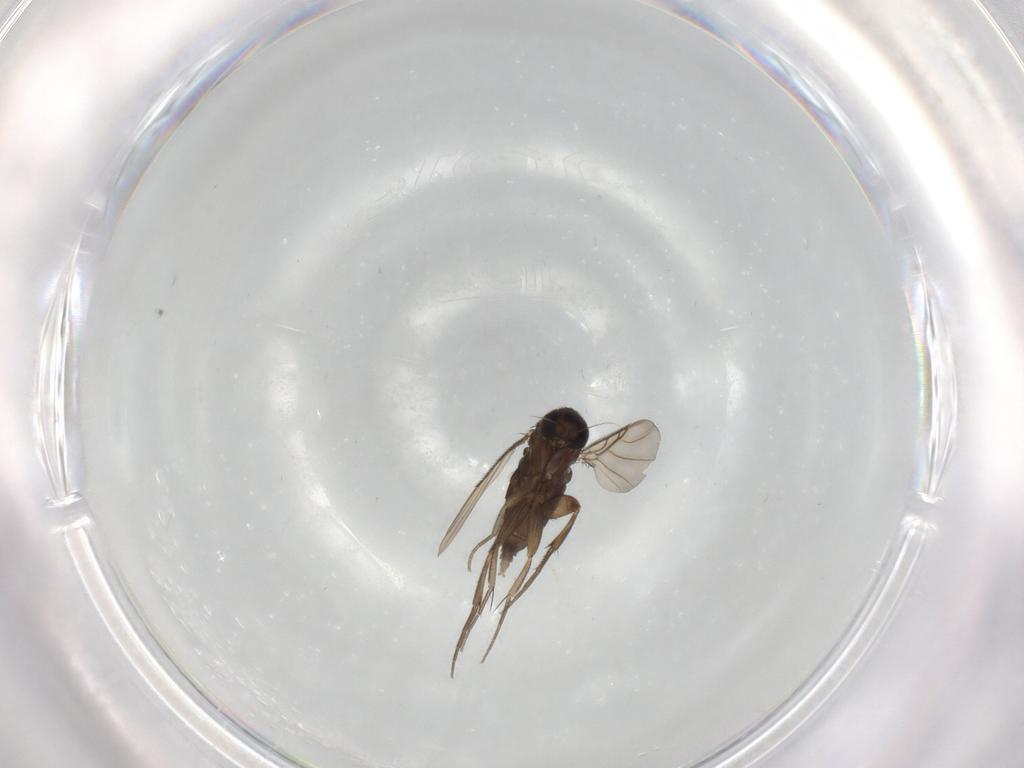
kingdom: Animalia
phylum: Arthropoda
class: Insecta
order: Diptera
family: Phoridae
